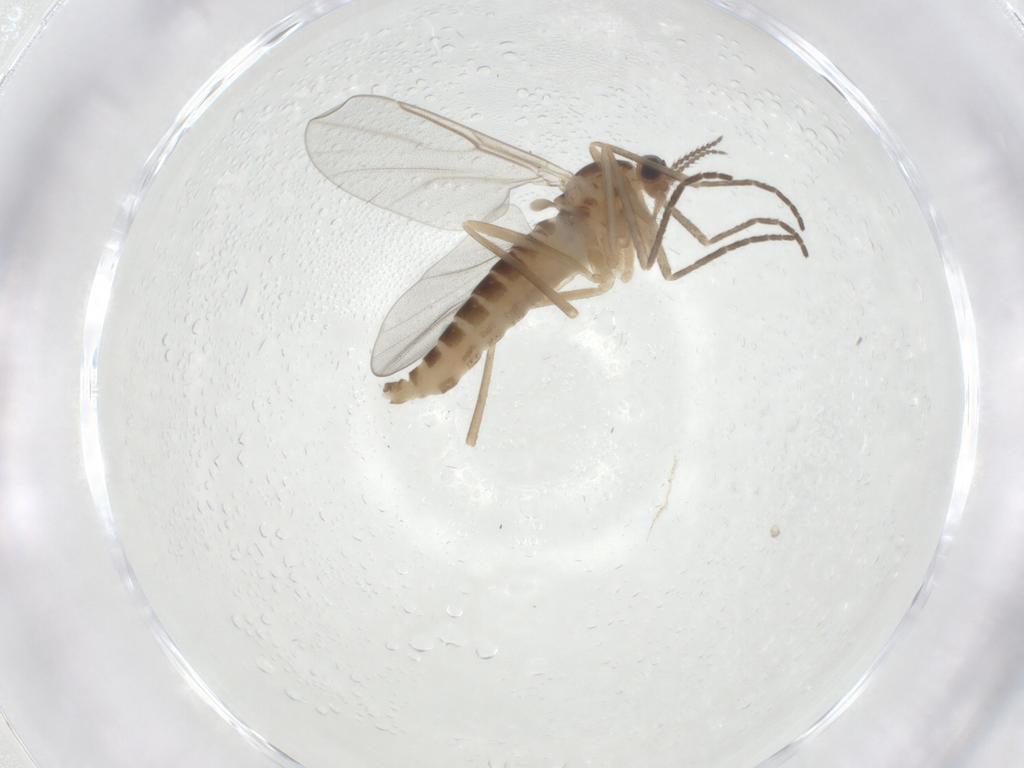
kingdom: Animalia
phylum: Arthropoda
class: Insecta
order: Diptera
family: Cecidomyiidae
